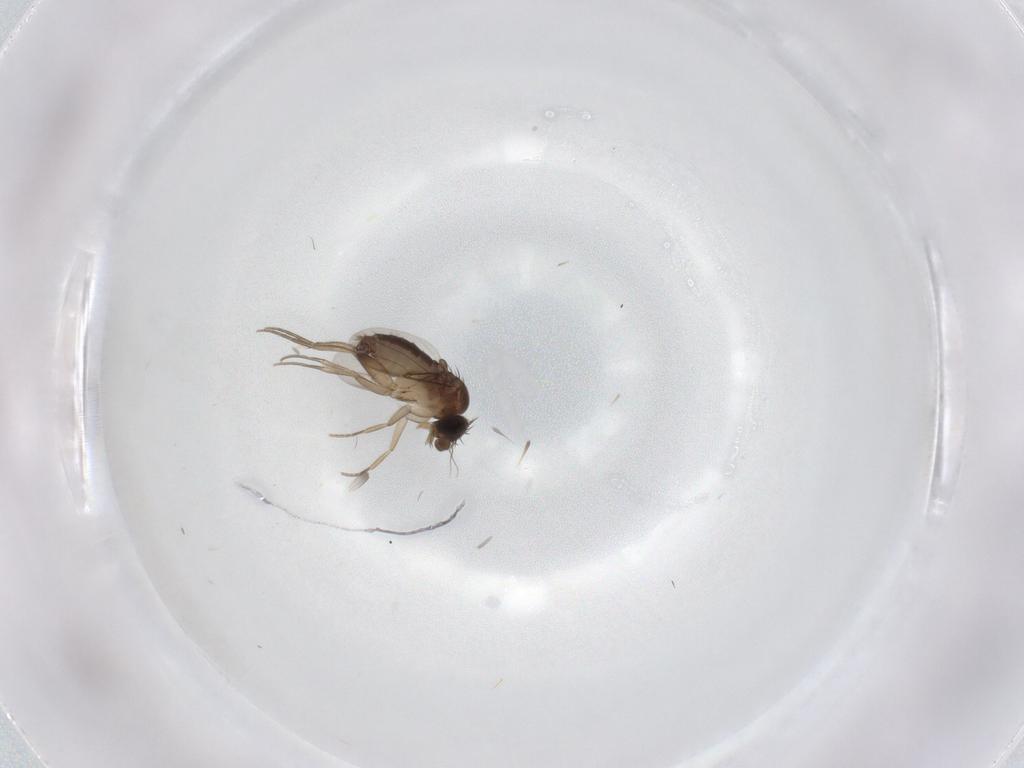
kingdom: Animalia
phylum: Arthropoda
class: Insecta
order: Diptera
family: Phoridae
